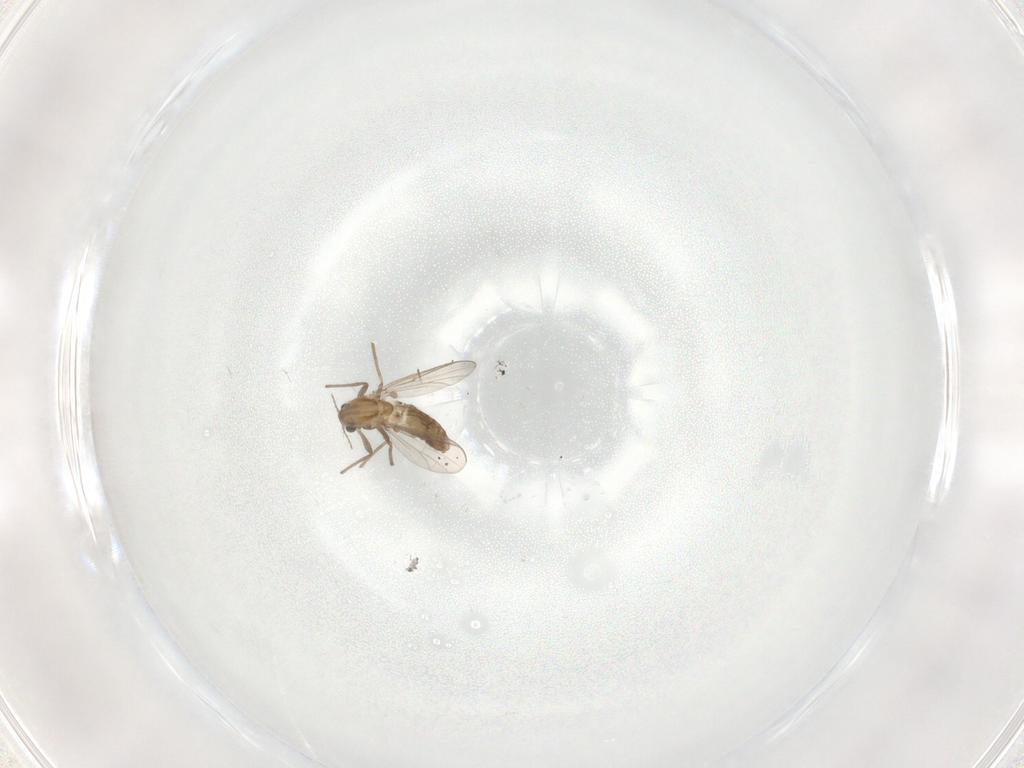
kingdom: Animalia
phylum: Arthropoda
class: Insecta
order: Diptera
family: Chironomidae
